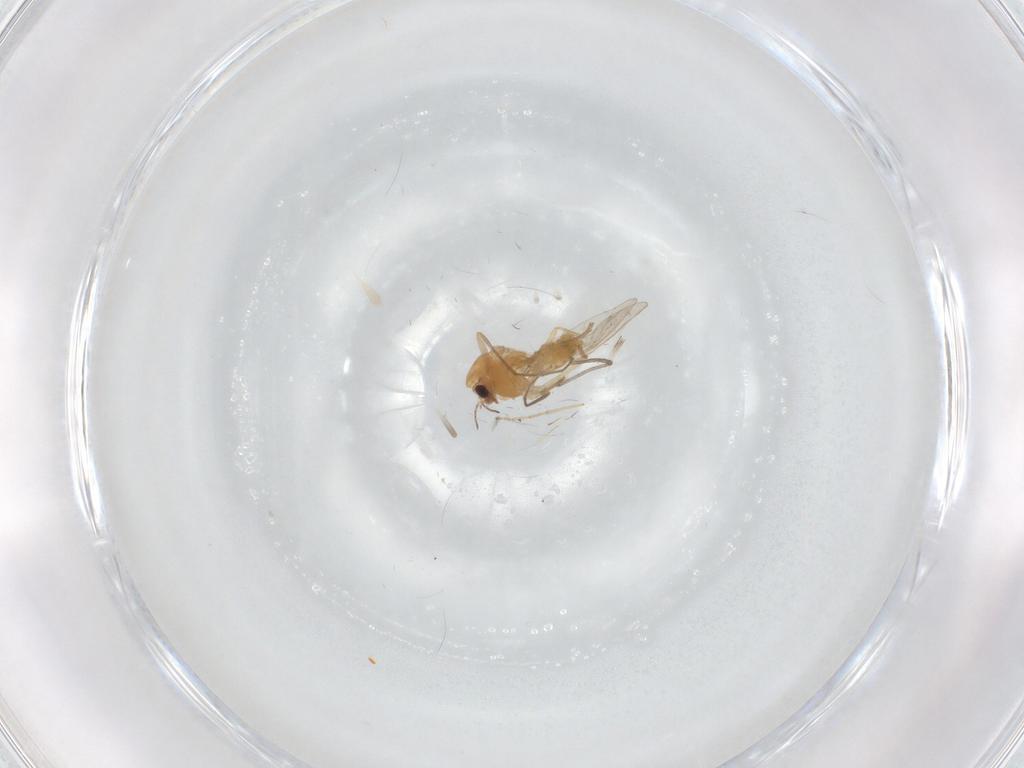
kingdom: Animalia
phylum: Arthropoda
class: Insecta
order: Diptera
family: Chironomidae
